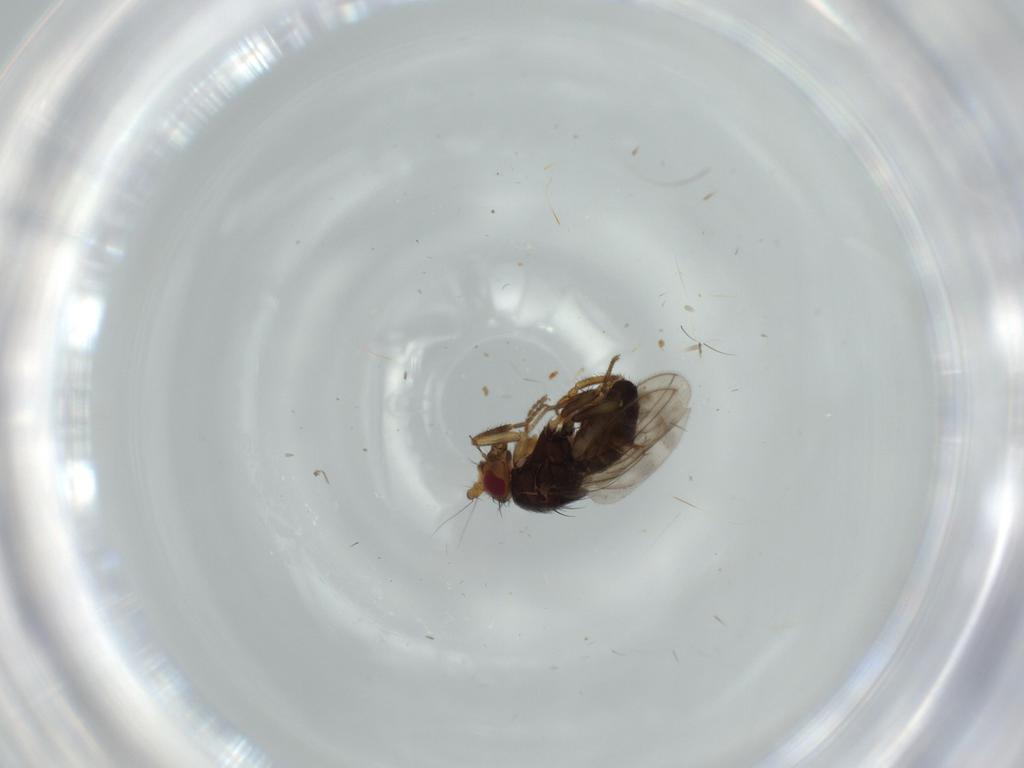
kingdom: Animalia
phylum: Arthropoda
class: Insecta
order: Diptera
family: Sphaeroceridae
